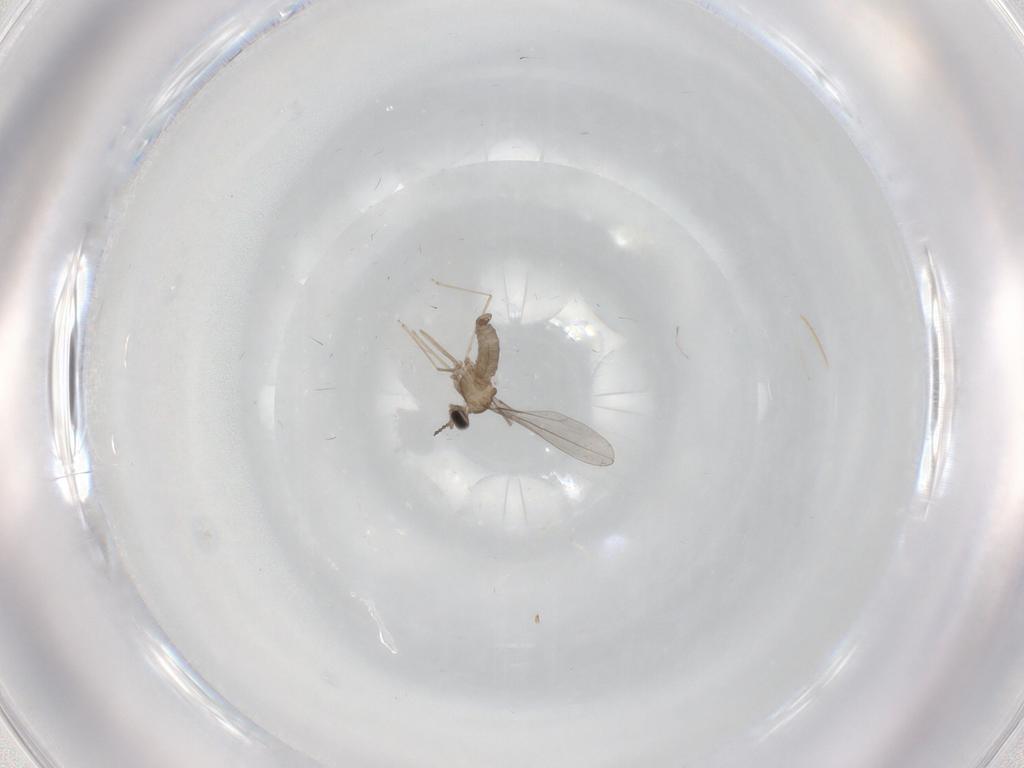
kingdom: Animalia
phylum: Arthropoda
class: Insecta
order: Diptera
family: Cecidomyiidae
